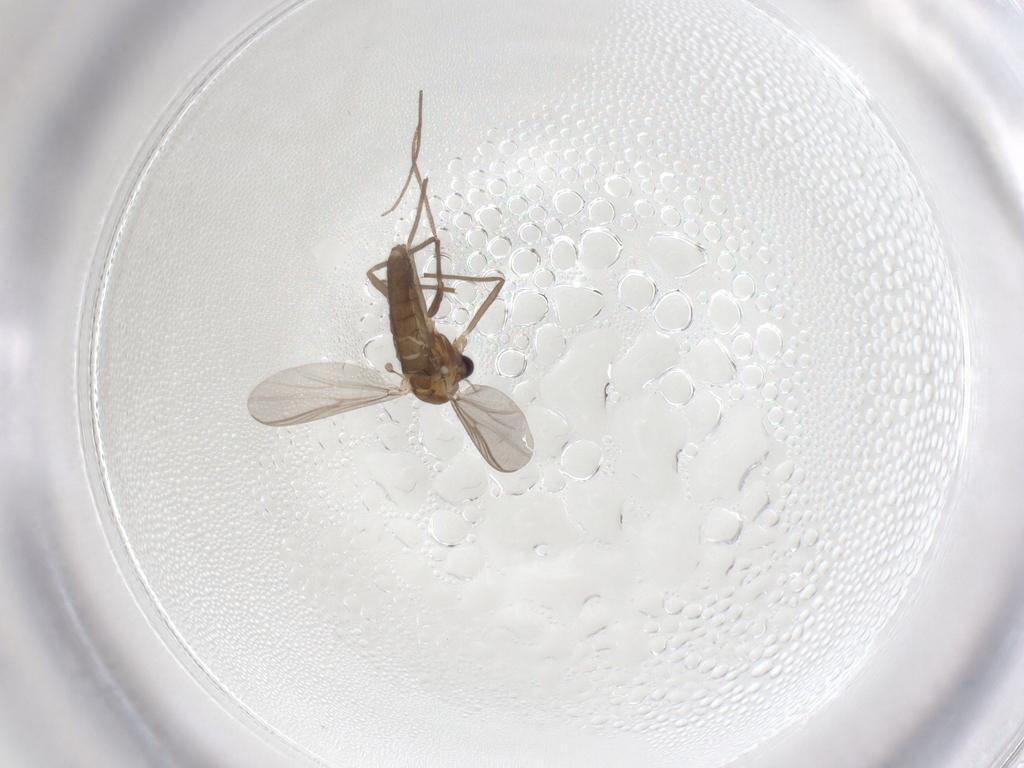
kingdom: Animalia
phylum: Arthropoda
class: Insecta
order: Diptera
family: Chironomidae
